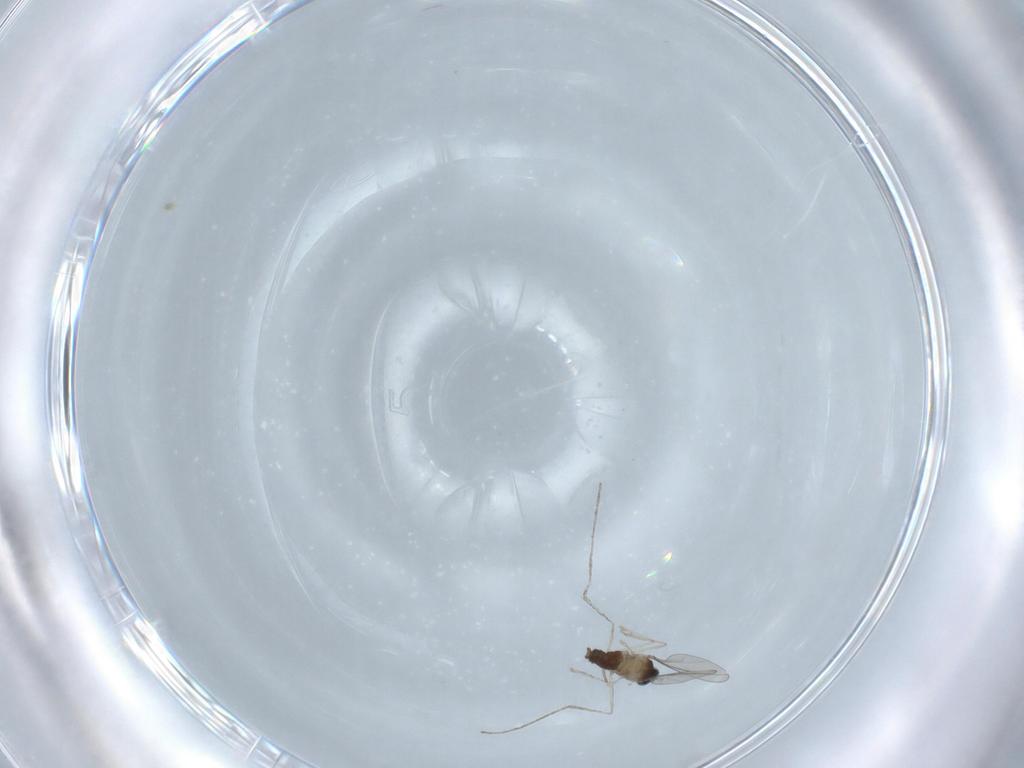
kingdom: Animalia
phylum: Arthropoda
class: Insecta
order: Diptera
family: Cecidomyiidae
